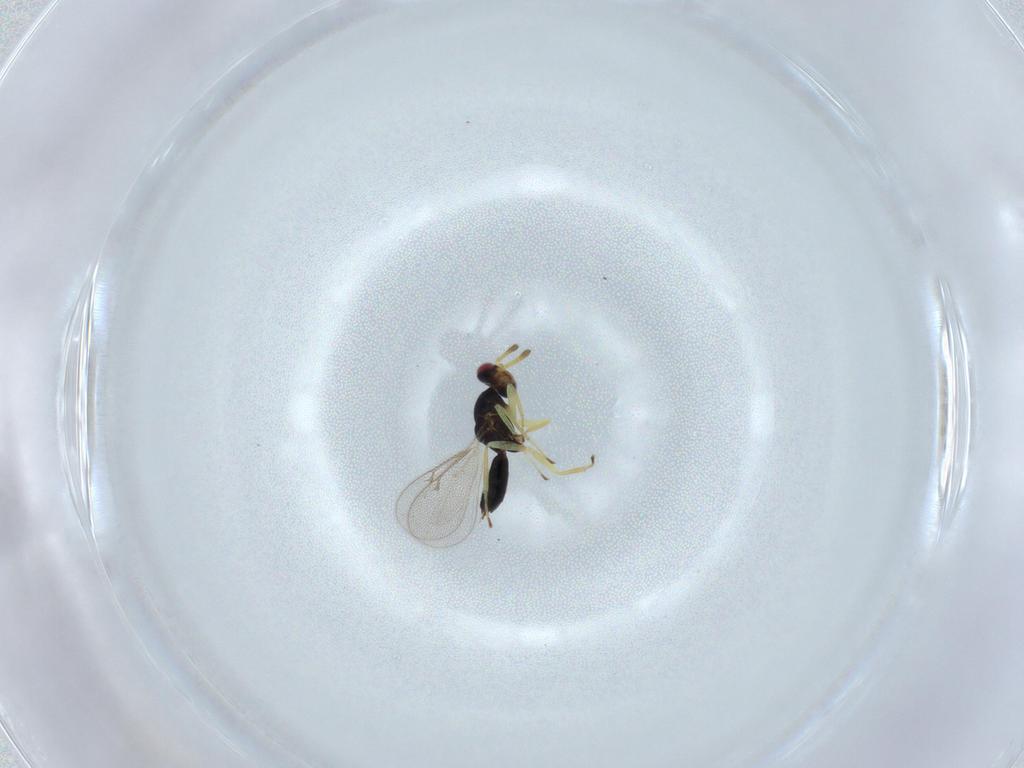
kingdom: Animalia
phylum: Arthropoda
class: Insecta
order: Hymenoptera
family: Eulophidae
